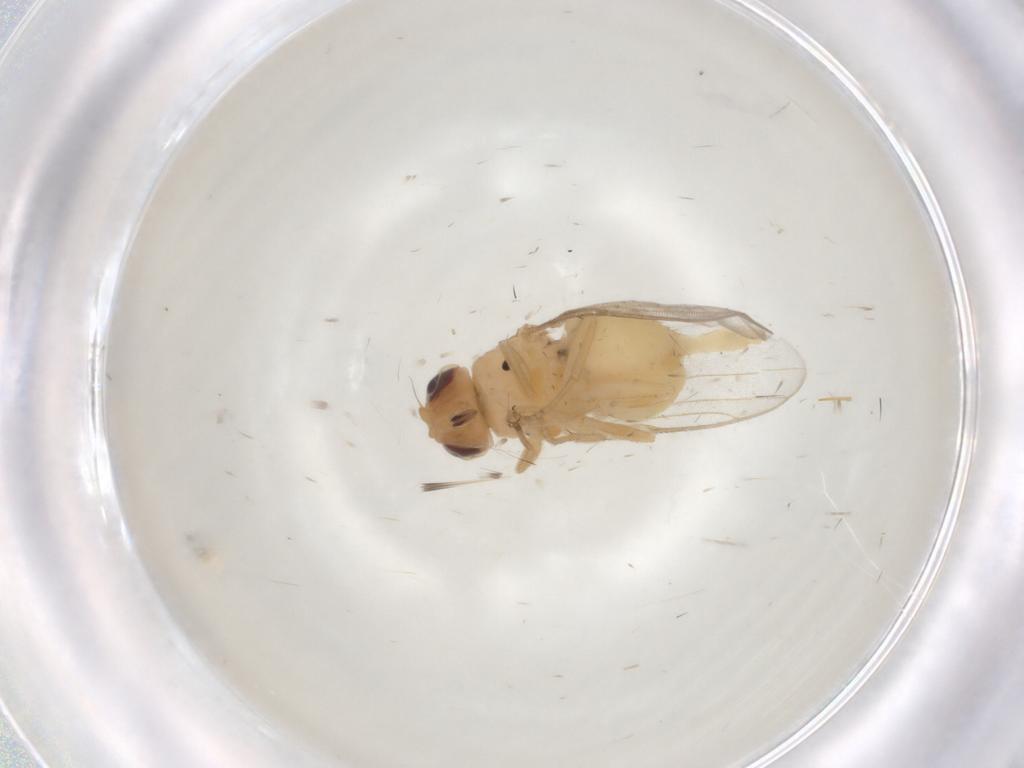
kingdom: Animalia
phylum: Arthropoda
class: Insecta
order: Diptera
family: Chloropidae
